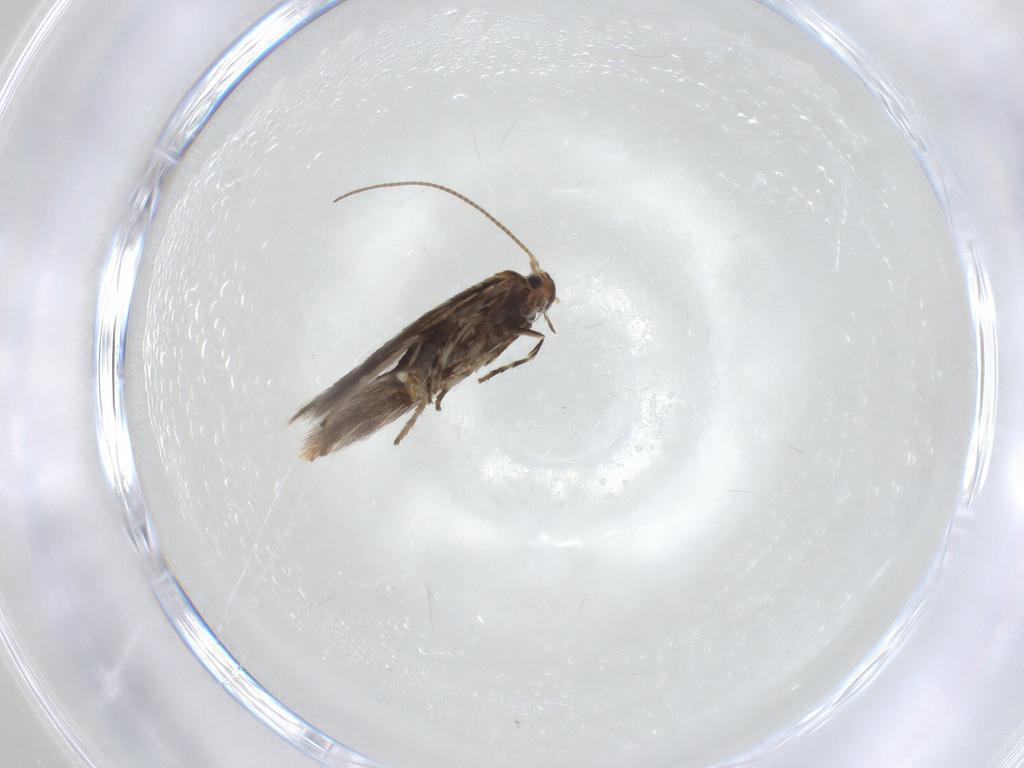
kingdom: Animalia
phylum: Arthropoda
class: Insecta
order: Lepidoptera
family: Gracillariidae
